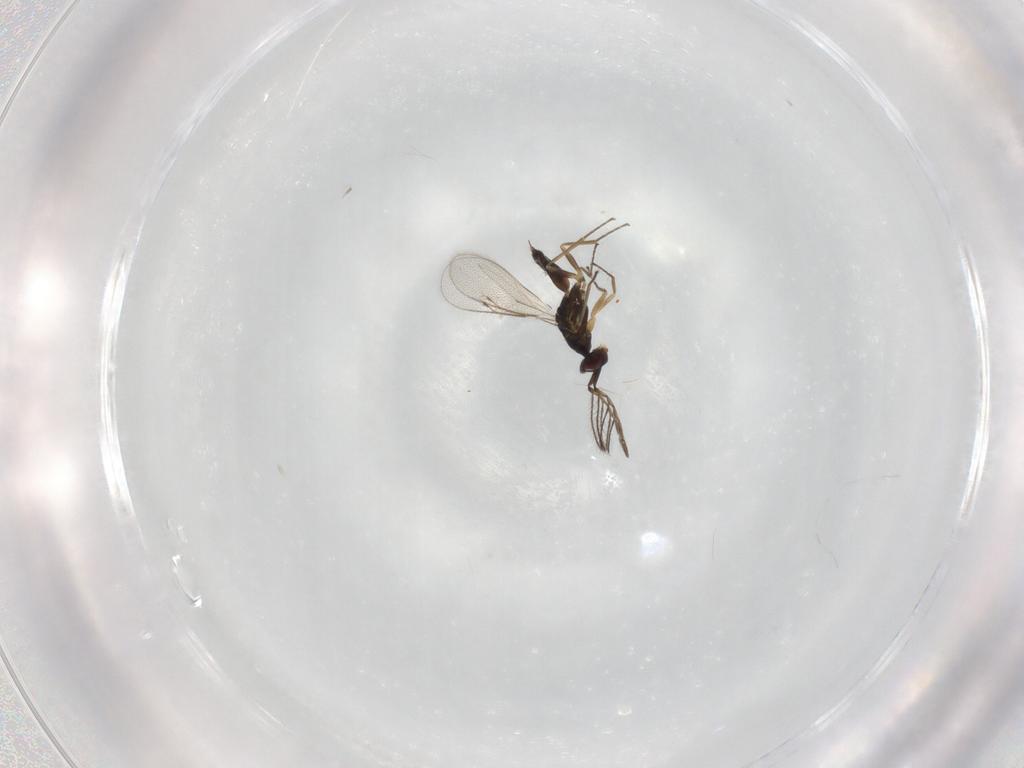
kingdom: Animalia
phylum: Arthropoda
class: Insecta
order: Hymenoptera
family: Eulophidae
